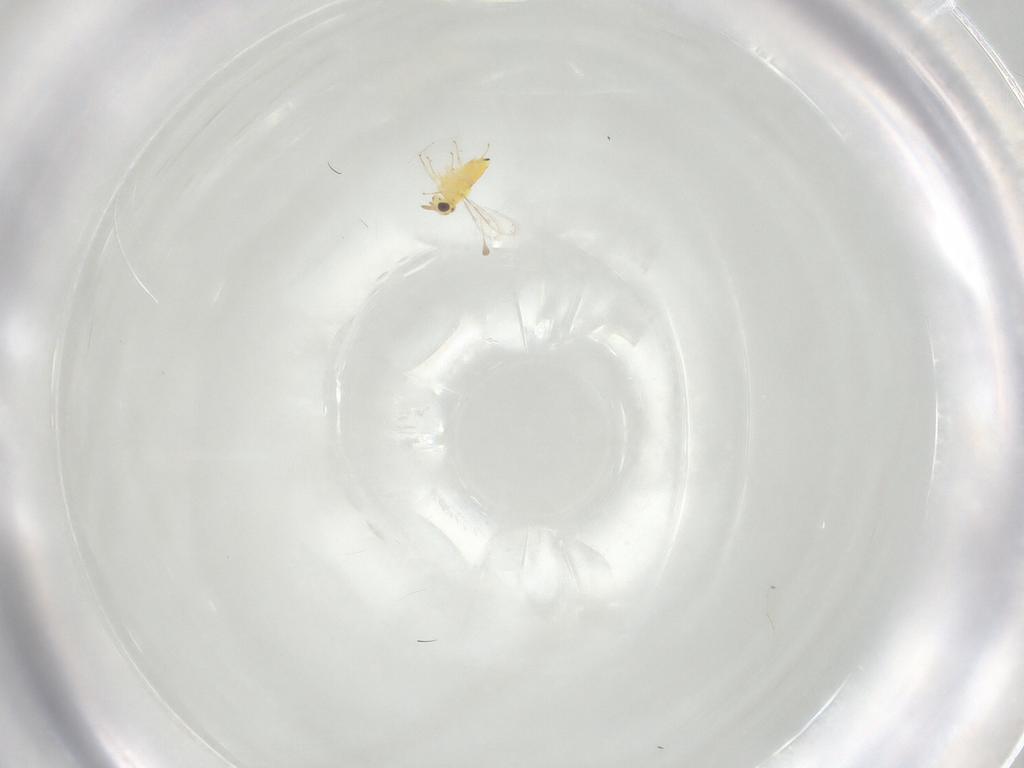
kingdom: Animalia
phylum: Arthropoda
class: Insecta
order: Hymenoptera
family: Aphelinidae
